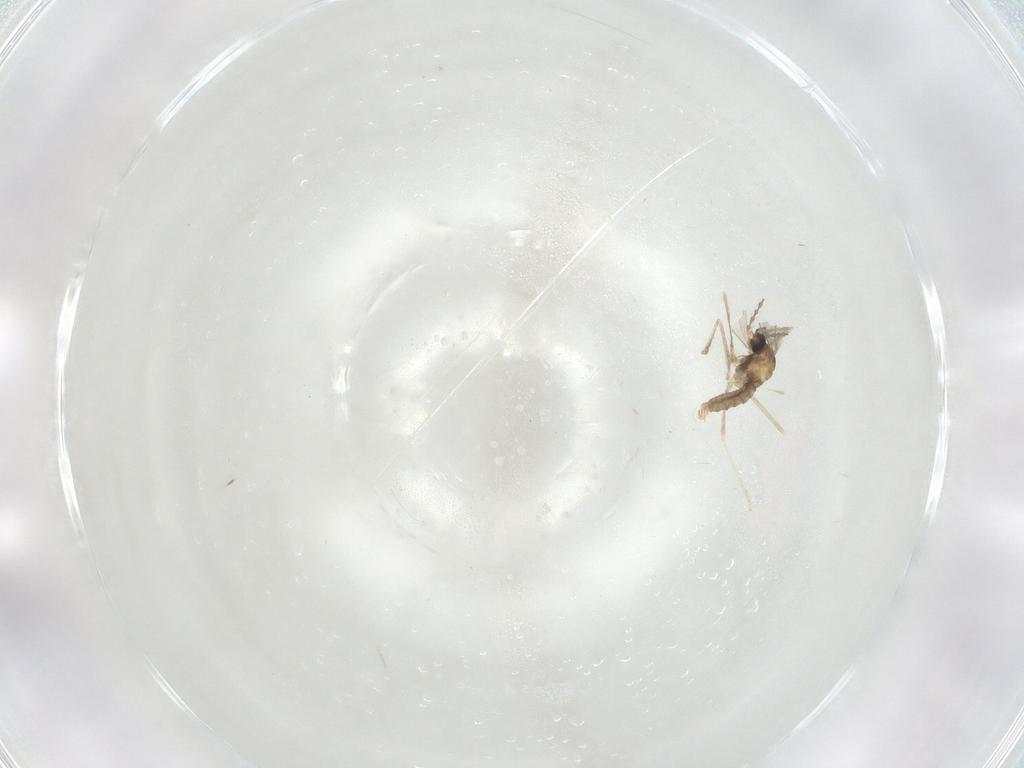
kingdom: Animalia
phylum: Arthropoda
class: Insecta
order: Diptera
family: Cecidomyiidae
